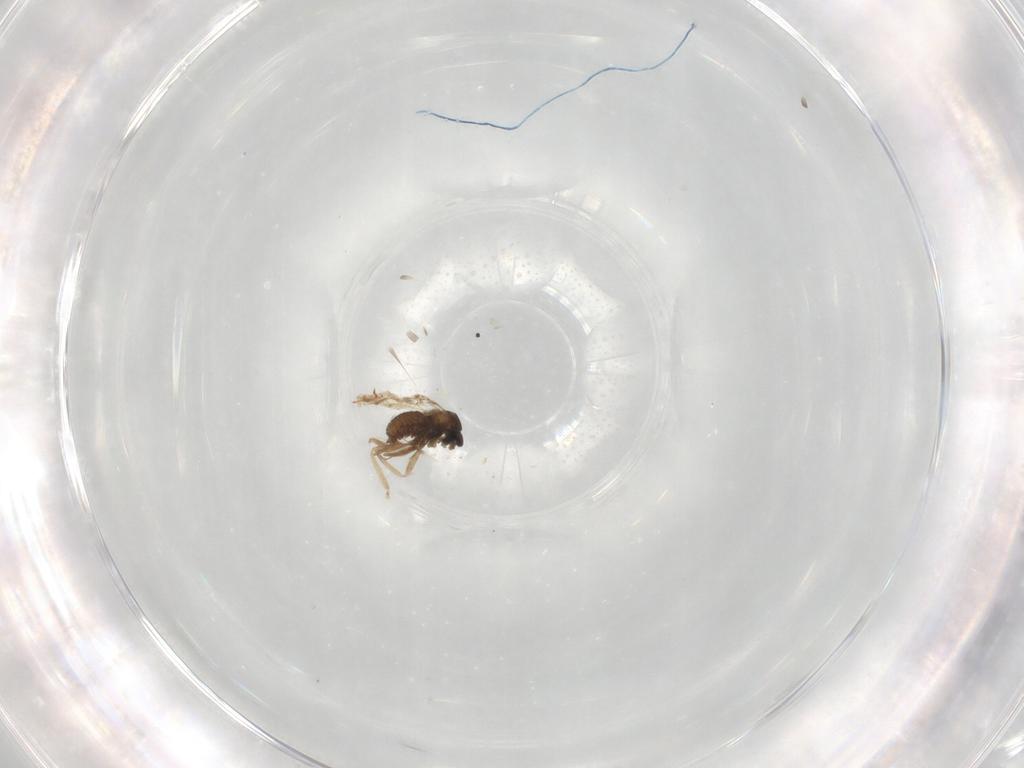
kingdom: Animalia
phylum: Arthropoda
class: Insecta
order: Diptera
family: Cecidomyiidae
